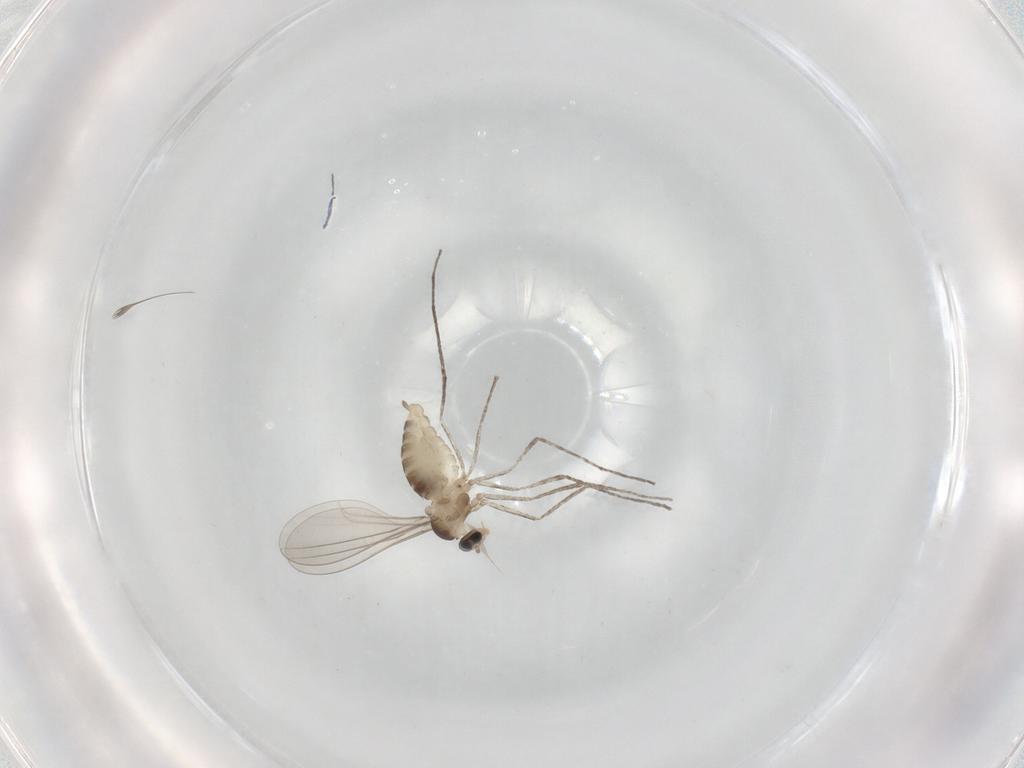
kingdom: Animalia
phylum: Arthropoda
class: Insecta
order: Diptera
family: Cecidomyiidae
